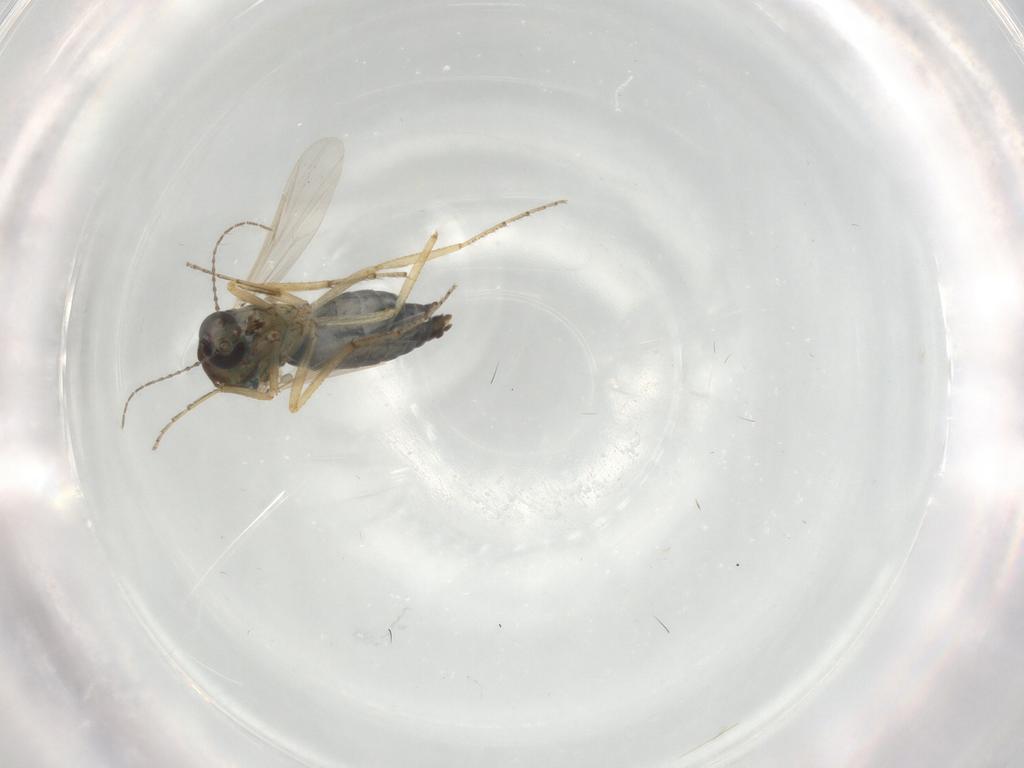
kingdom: Animalia
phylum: Arthropoda
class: Insecta
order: Diptera
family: Ceratopogonidae
